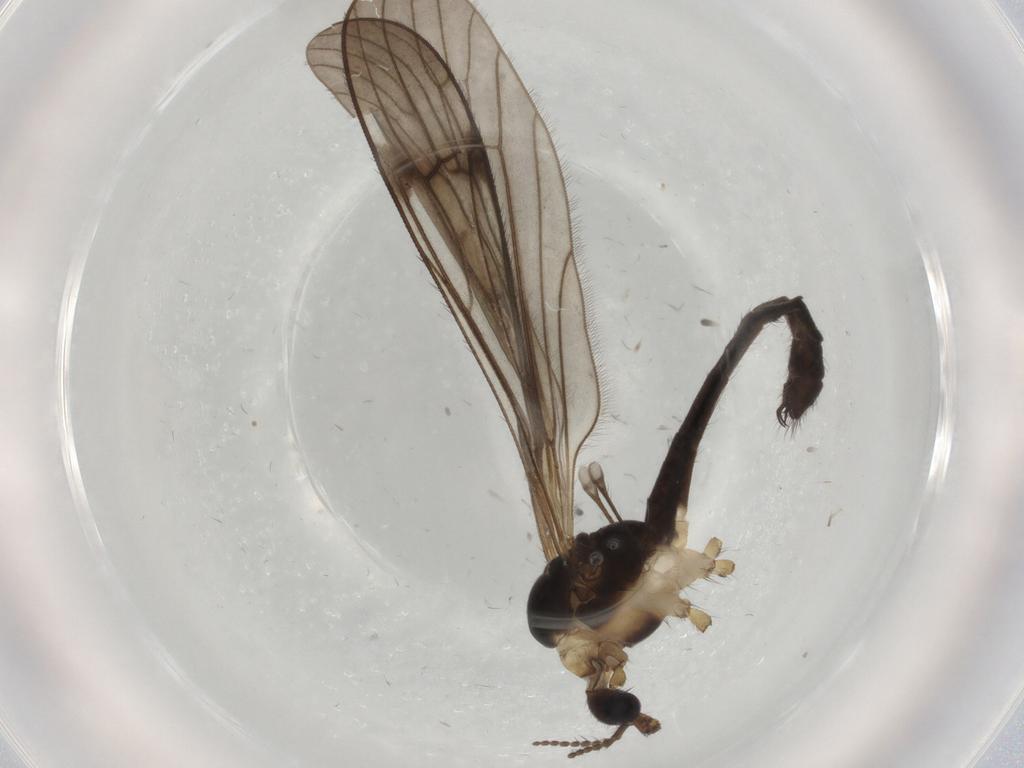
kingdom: Animalia
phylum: Arthropoda
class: Insecta
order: Diptera
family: Limoniidae
